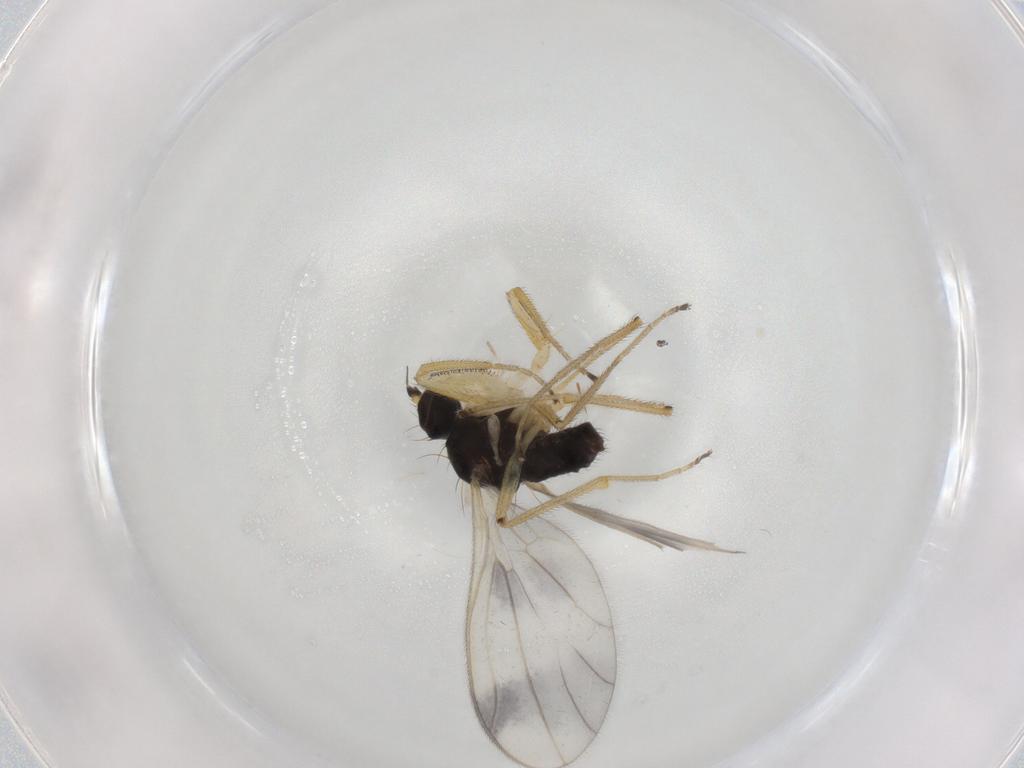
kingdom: Animalia
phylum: Arthropoda
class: Insecta
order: Diptera
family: Empididae
